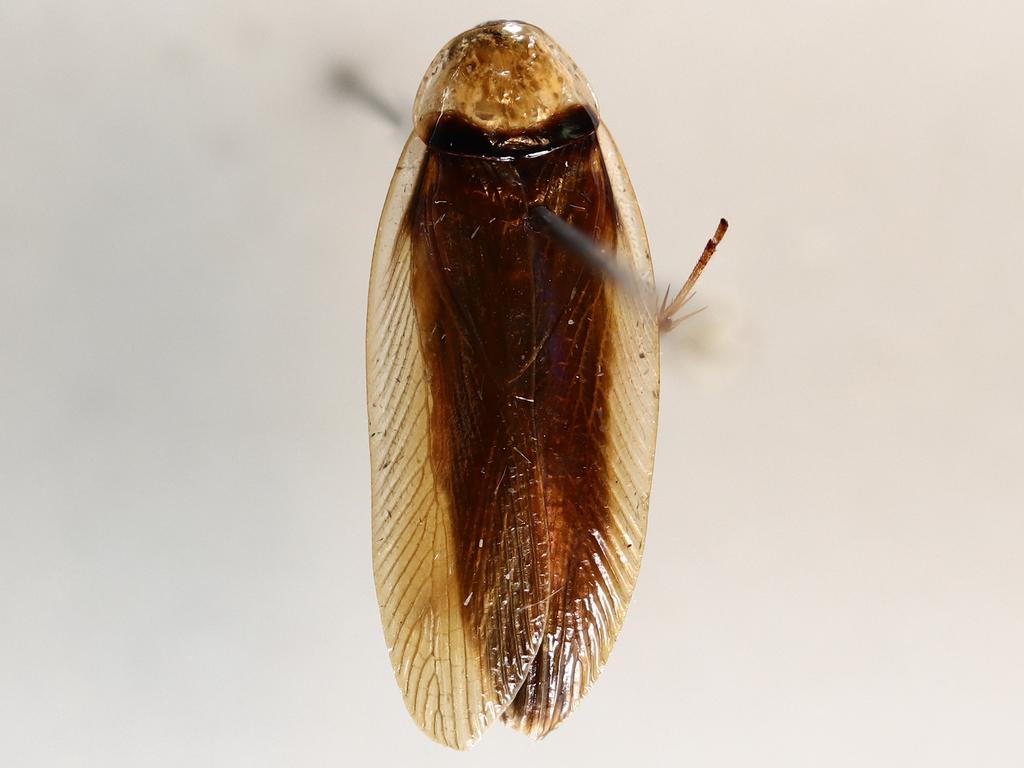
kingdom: Animalia
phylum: Arthropoda
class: Insecta
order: Diptera
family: Chironomidae
